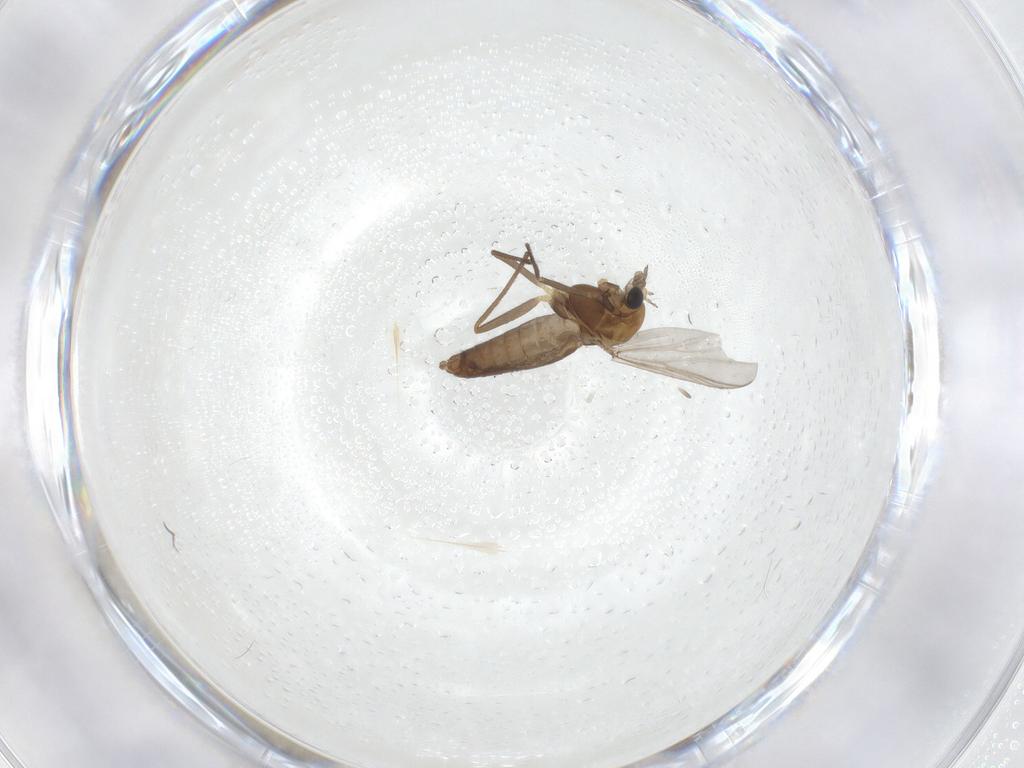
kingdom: Animalia
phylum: Arthropoda
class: Insecta
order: Diptera
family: Chironomidae
